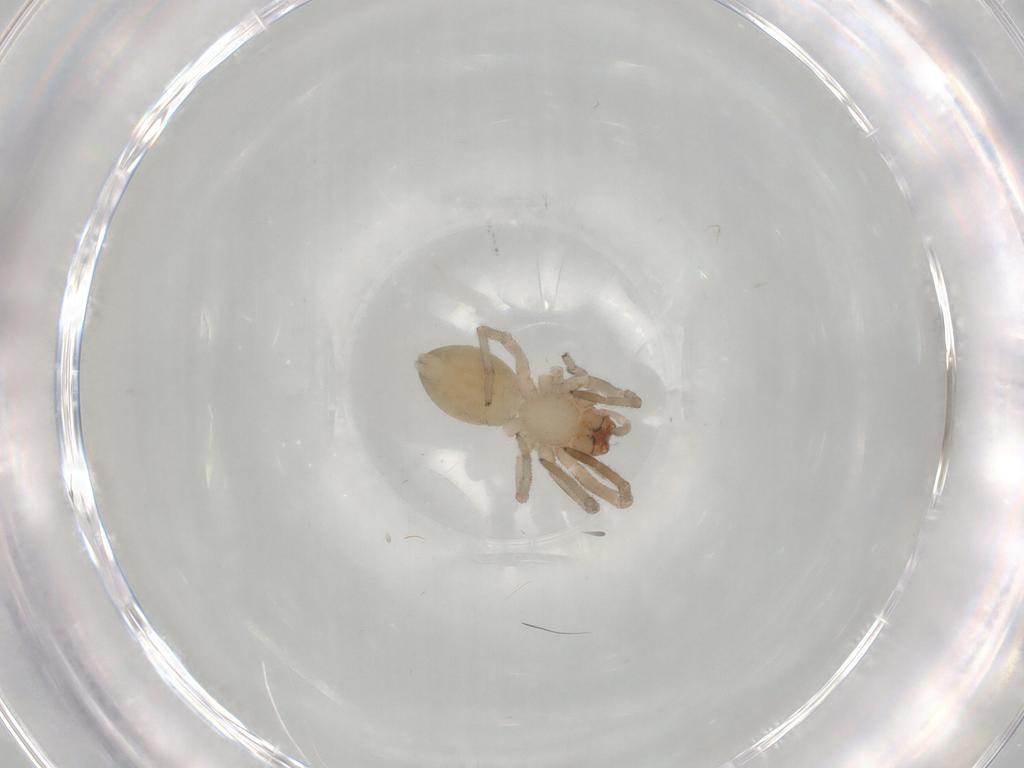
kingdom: Animalia
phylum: Arthropoda
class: Arachnida
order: Araneae
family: Trachelidae
